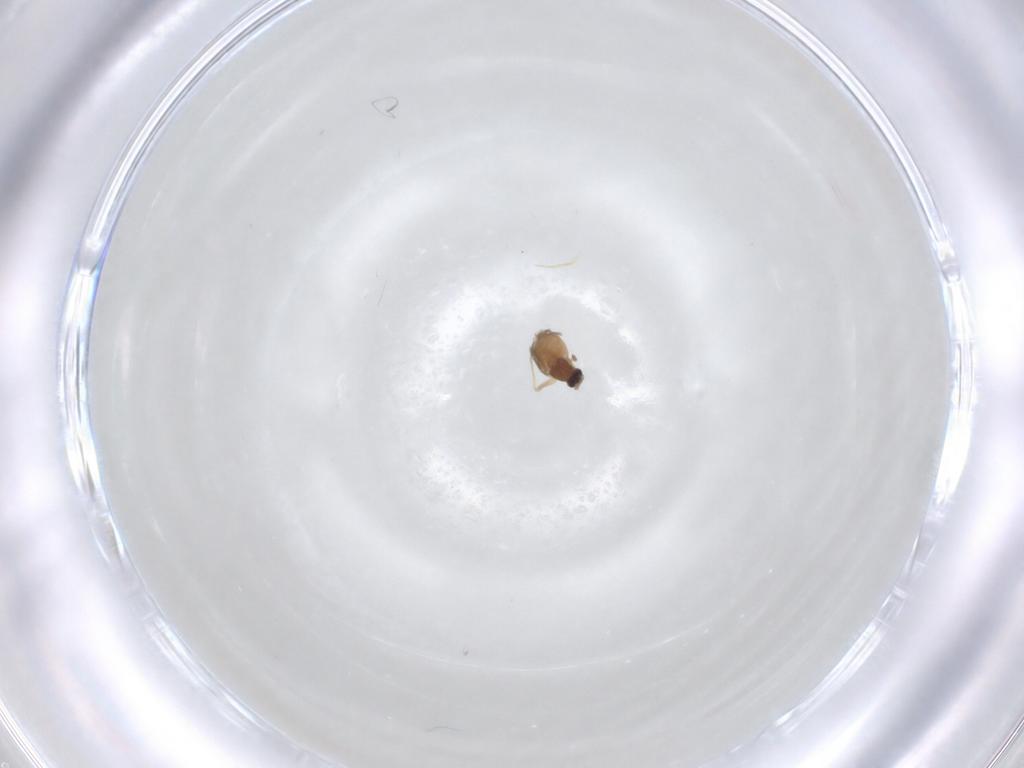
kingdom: Animalia
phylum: Arthropoda
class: Insecta
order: Diptera
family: Cecidomyiidae
